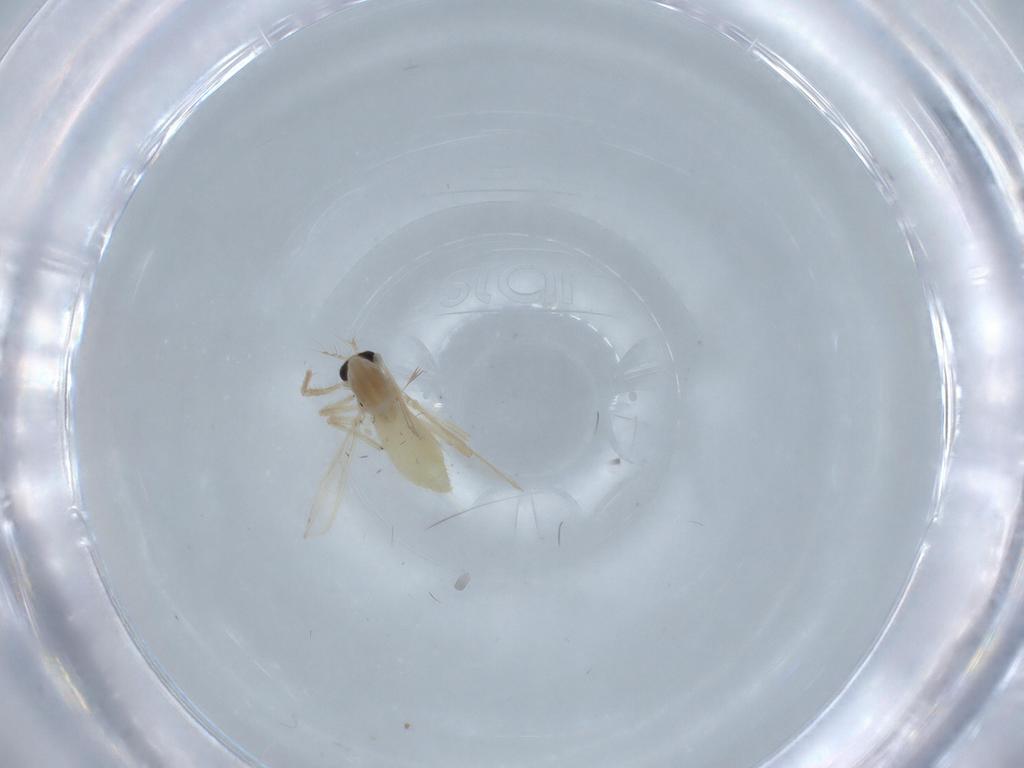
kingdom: Animalia
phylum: Arthropoda
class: Insecta
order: Diptera
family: Chironomidae
